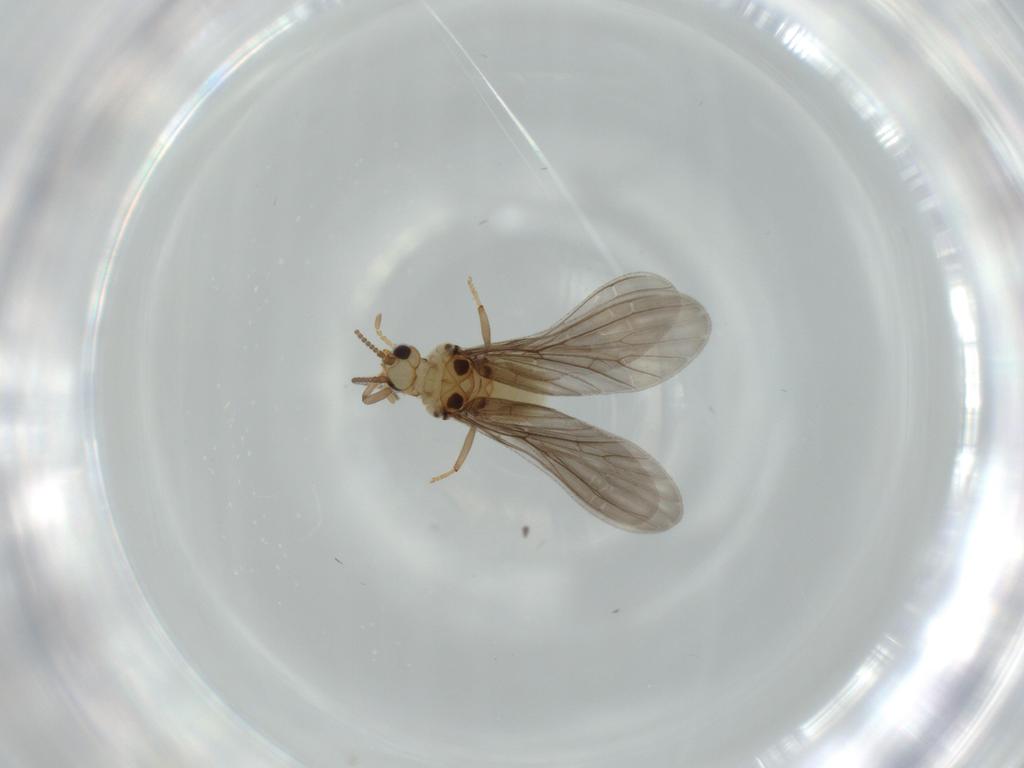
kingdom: Animalia
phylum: Arthropoda
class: Insecta
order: Neuroptera
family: Coniopterygidae
